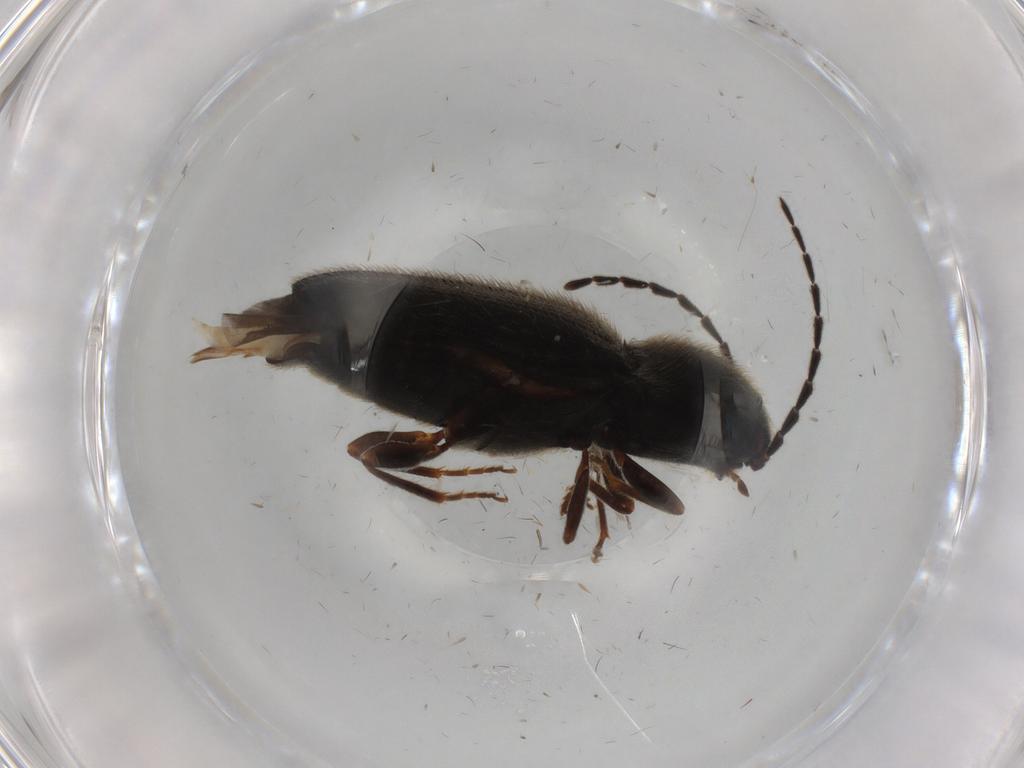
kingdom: Animalia
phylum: Arthropoda
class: Insecta
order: Coleoptera
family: Elateridae
